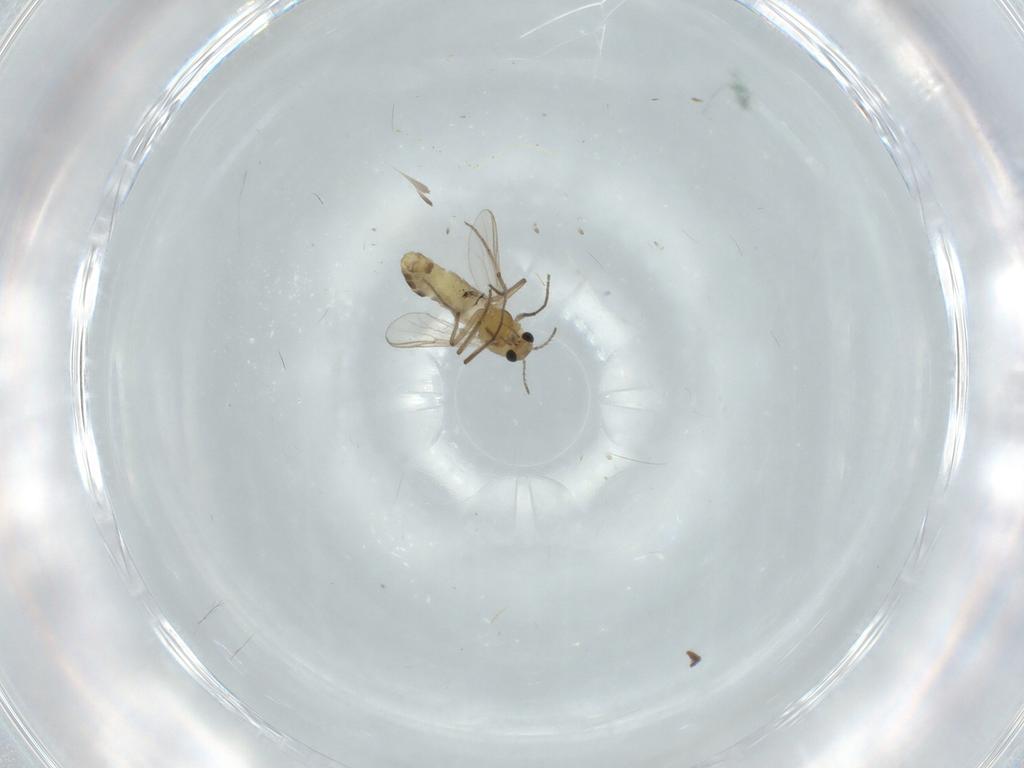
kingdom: Animalia
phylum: Arthropoda
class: Insecta
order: Diptera
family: Chironomidae
